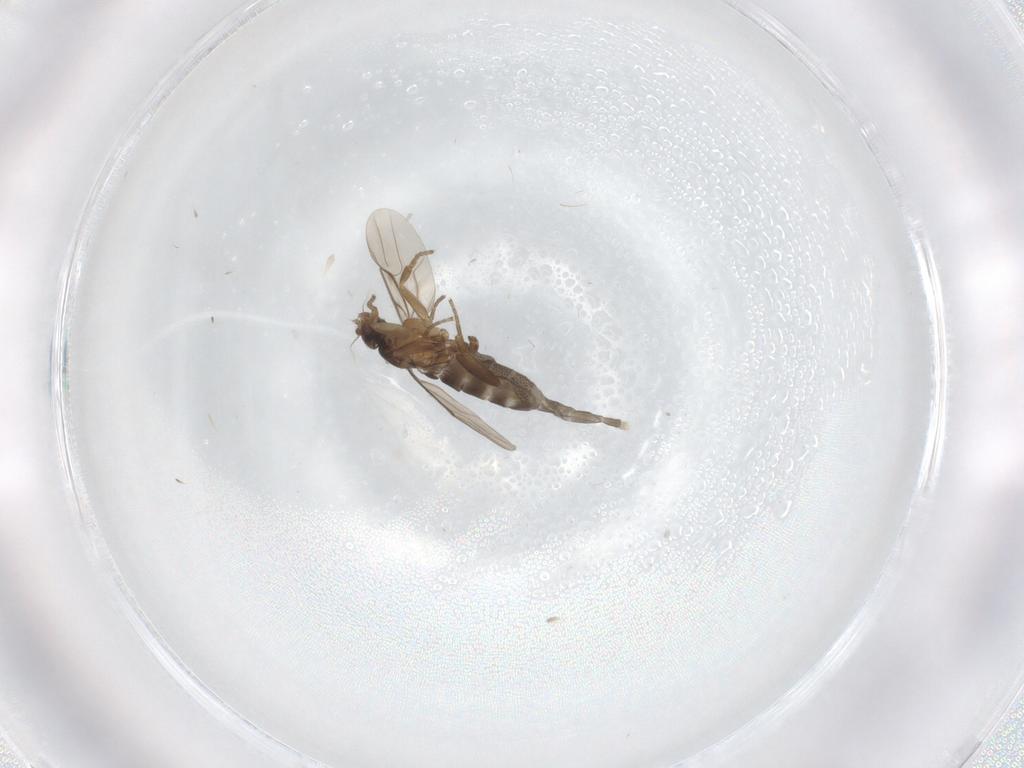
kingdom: Animalia
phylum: Arthropoda
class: Insecta
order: Diptera
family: Phoridae
